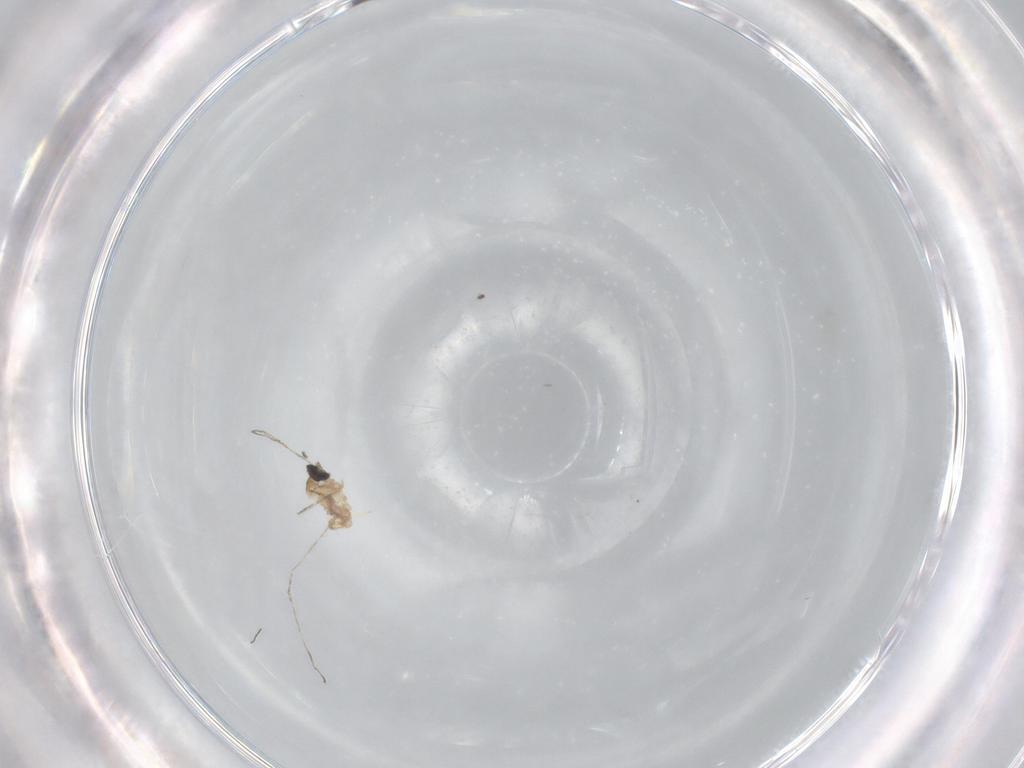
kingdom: Animalia
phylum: Arthropoda
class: Insecta
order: Diptera
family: Cecidomyiidae
